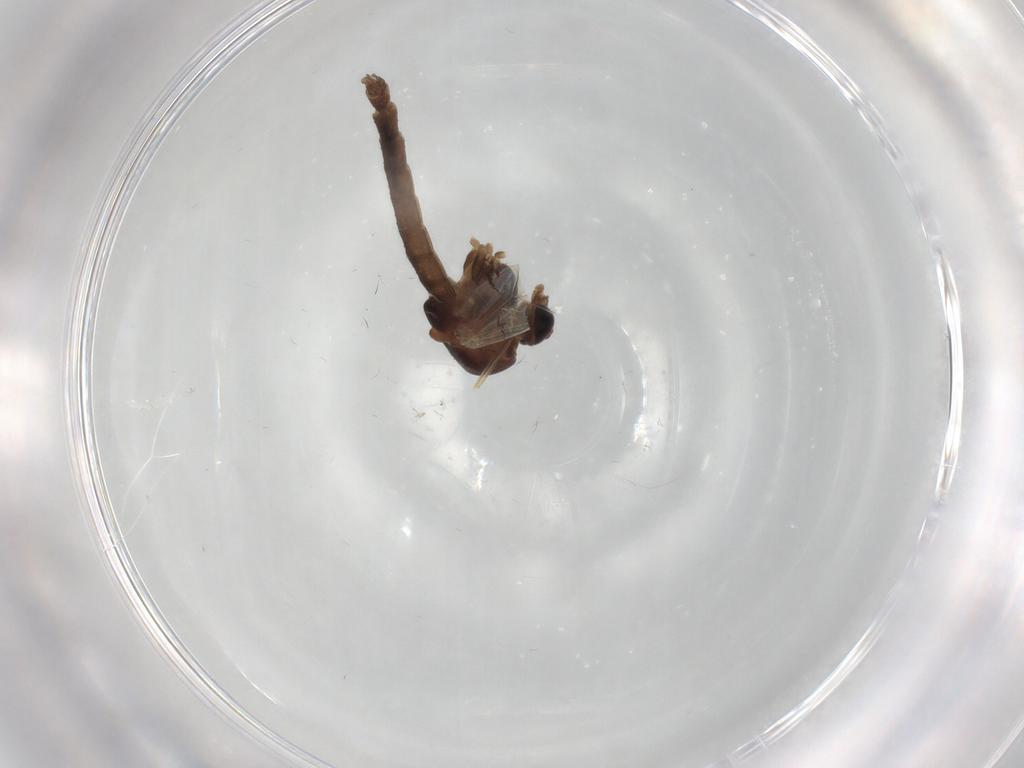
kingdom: Animalia
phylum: Arthropoda
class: Insecta
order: Diptera
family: Chironomidae
